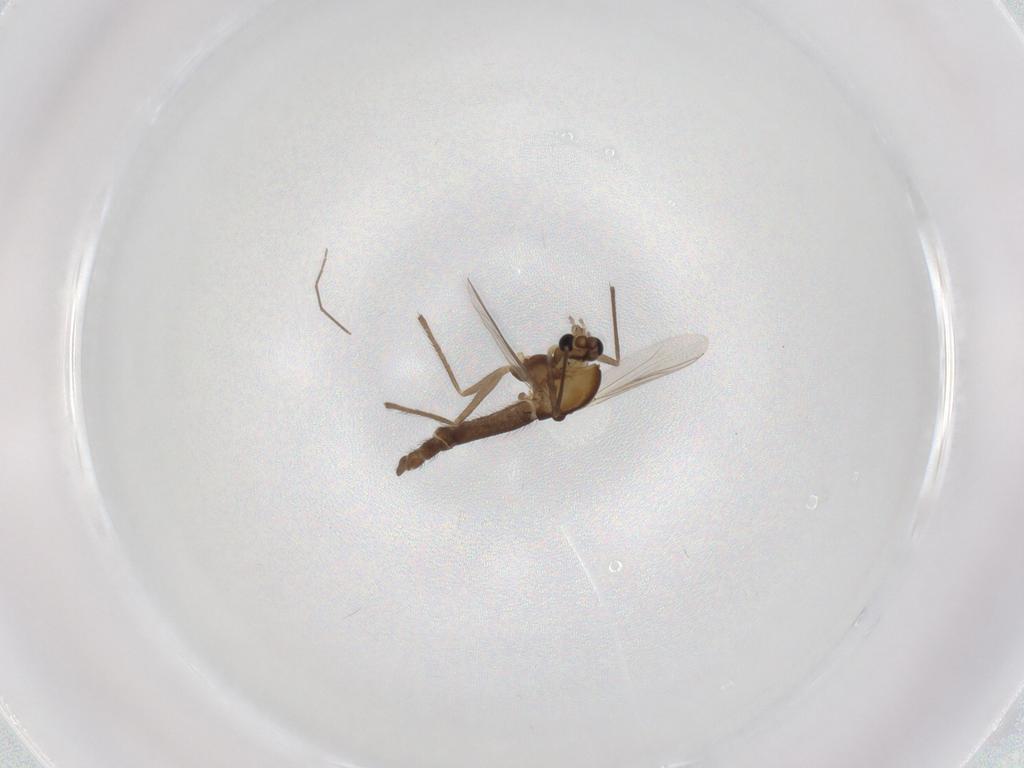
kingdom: Animalia
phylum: Arthropoda
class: Insecta
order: Diptera
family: Chironomidae
